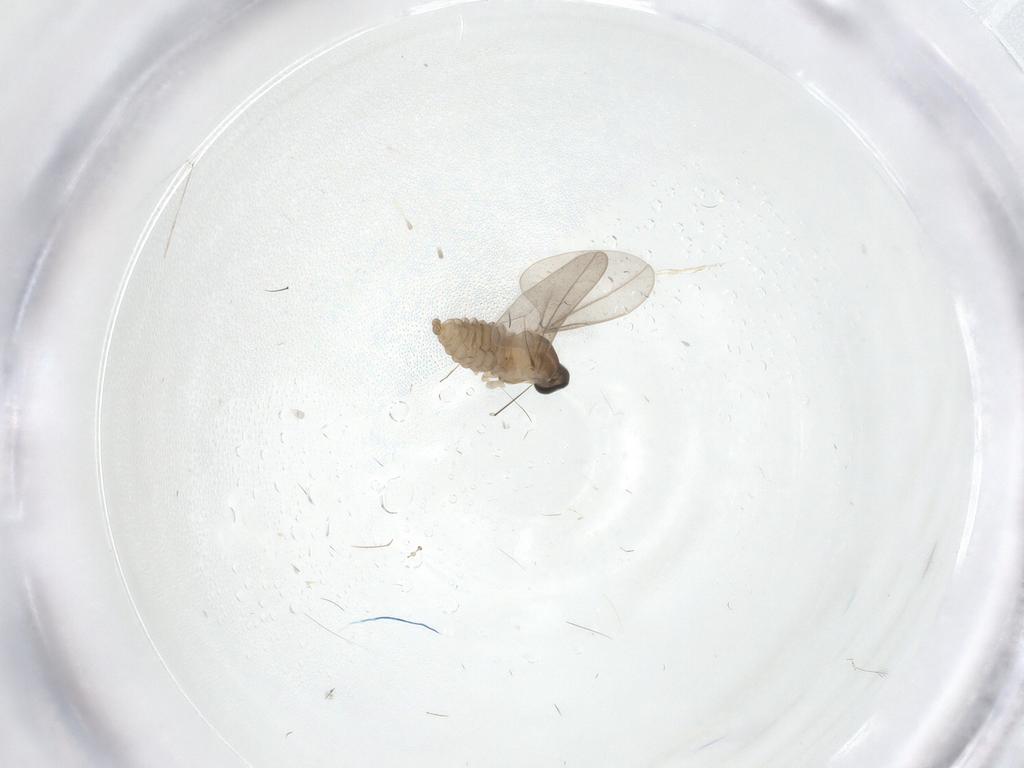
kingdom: Animalia
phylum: Arthropoda
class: Insecta
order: Diptera
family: Cecidomyiidae
